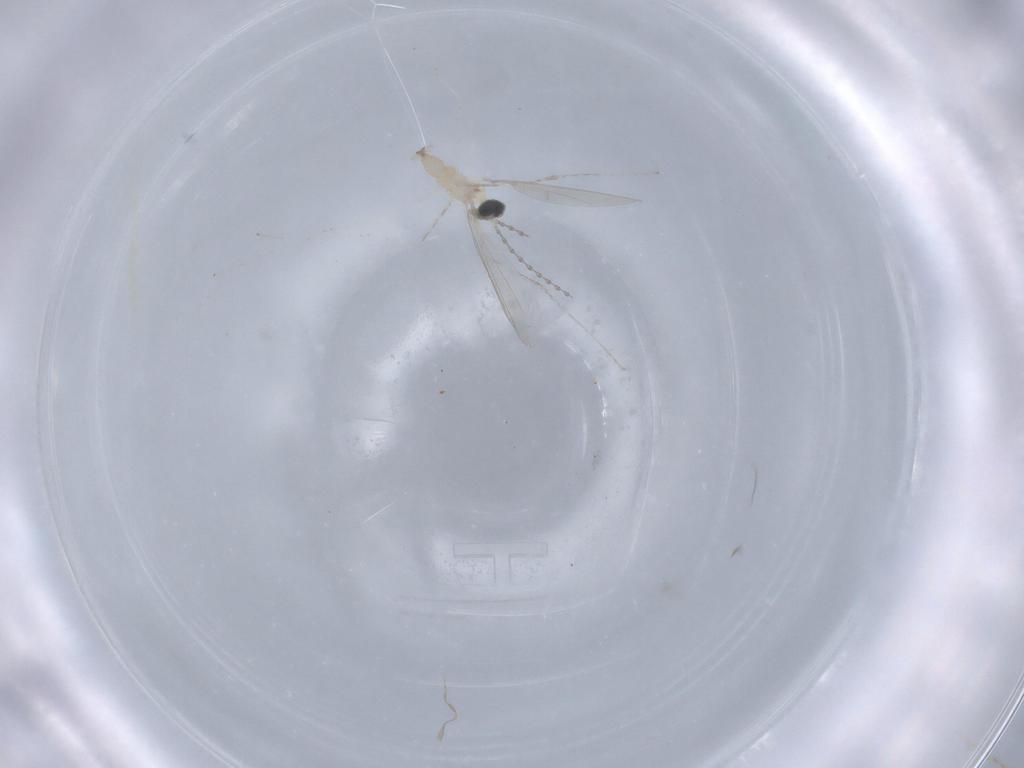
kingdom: Animalia
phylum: Arthropoda
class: Insecta
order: Diptera
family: Cecidomyiidae
